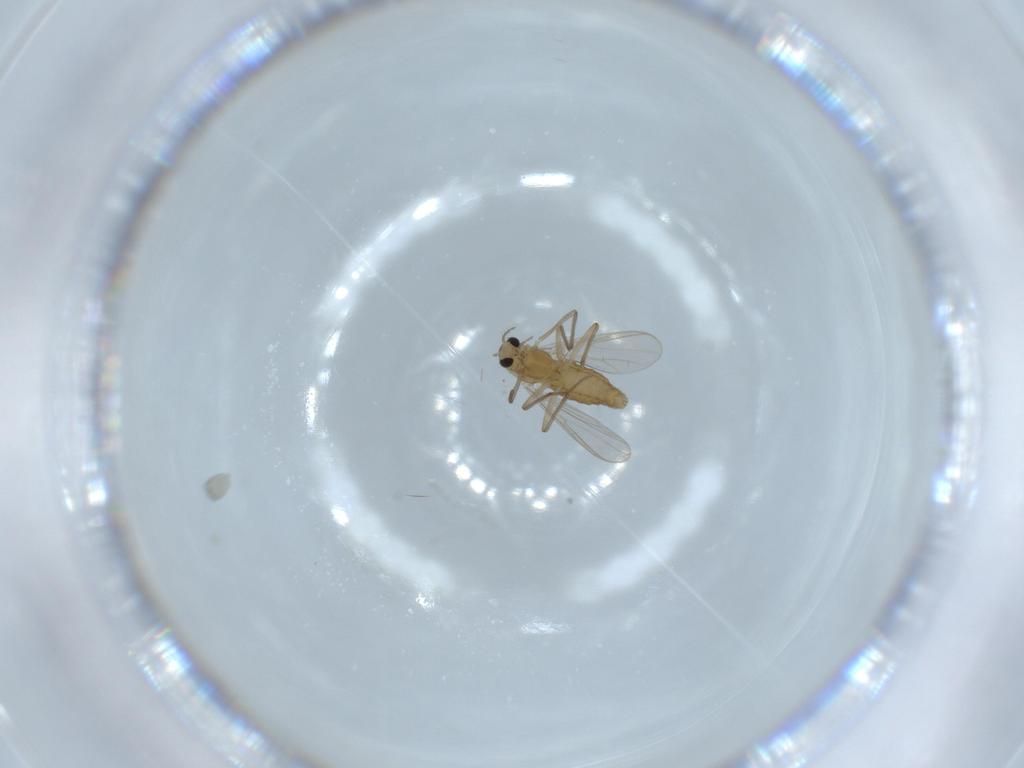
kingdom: Animalia
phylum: Arthropoda
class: Insecta
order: Diptera
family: Chironomidae
